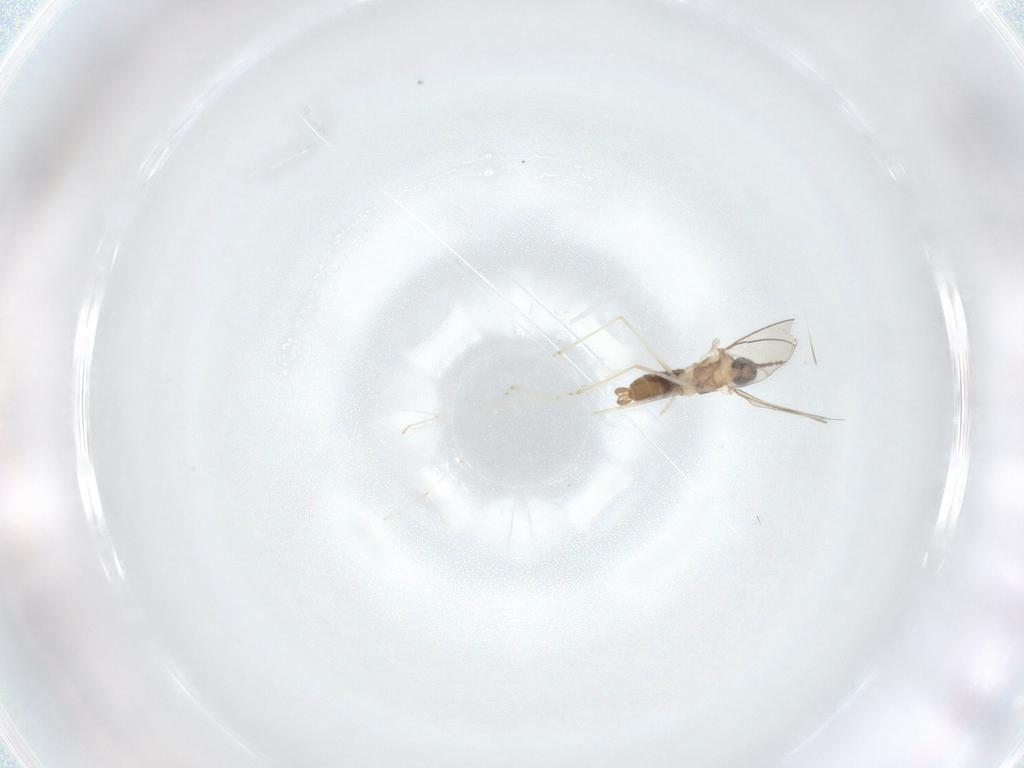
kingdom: Animalia
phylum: Arthropoda
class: Insecta
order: Diptera
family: Cecidomyiidae
